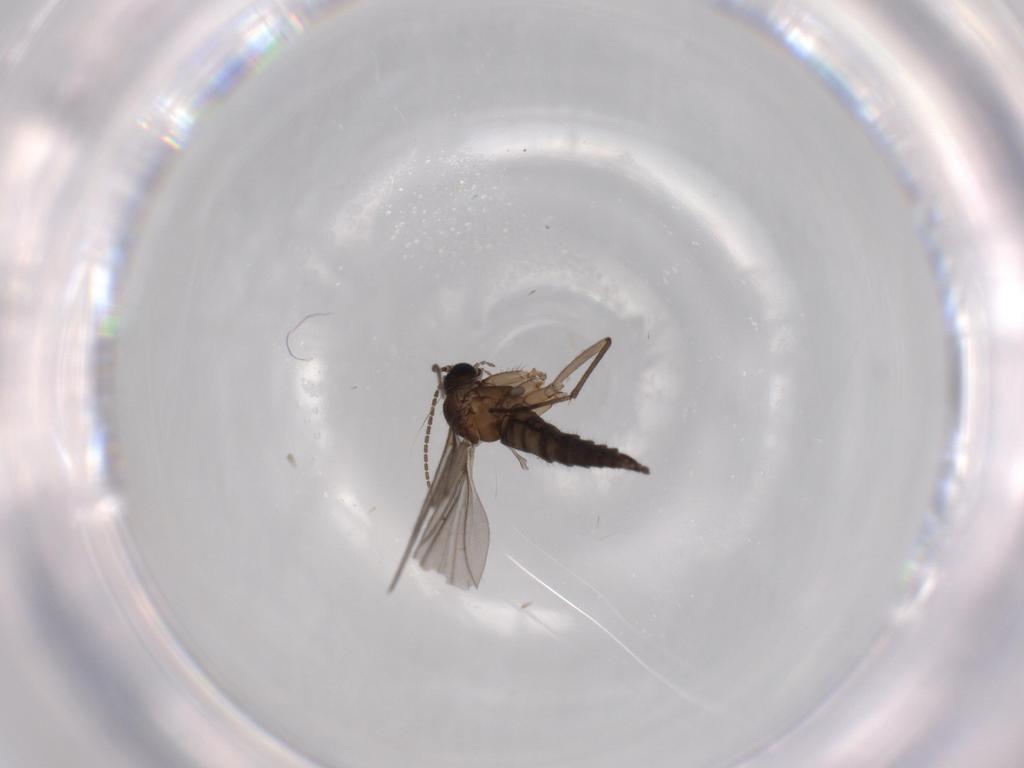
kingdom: Animalia
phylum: Arthropoda
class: Insecta
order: Diptera
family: Sciaridae
